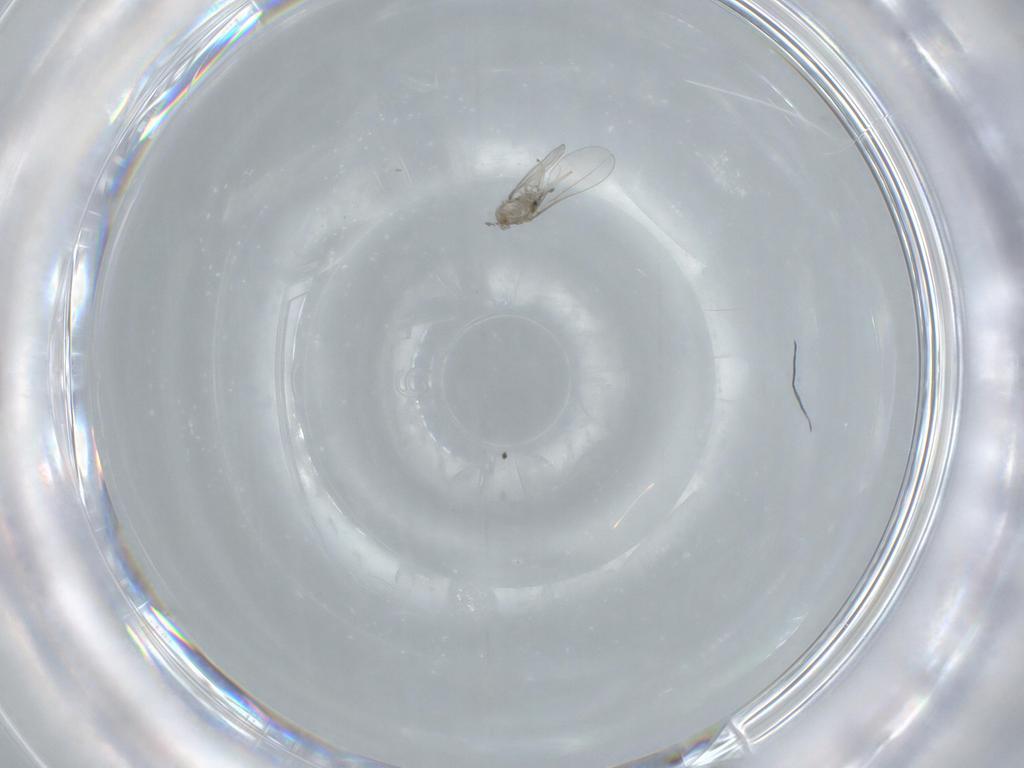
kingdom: Animalia
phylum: Arthropoda
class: Insecta
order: Diptera
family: Cecidomyiidae
